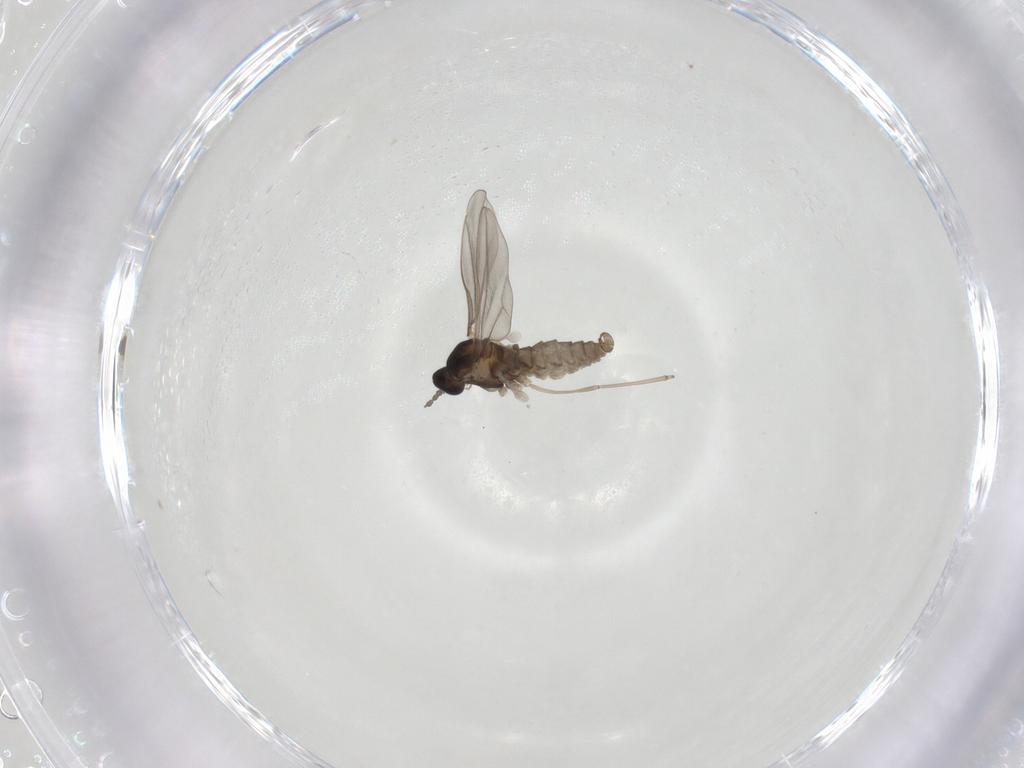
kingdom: Animalia
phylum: Arthropoda
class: Insecta
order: Diptera
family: Cecidomyiidae
